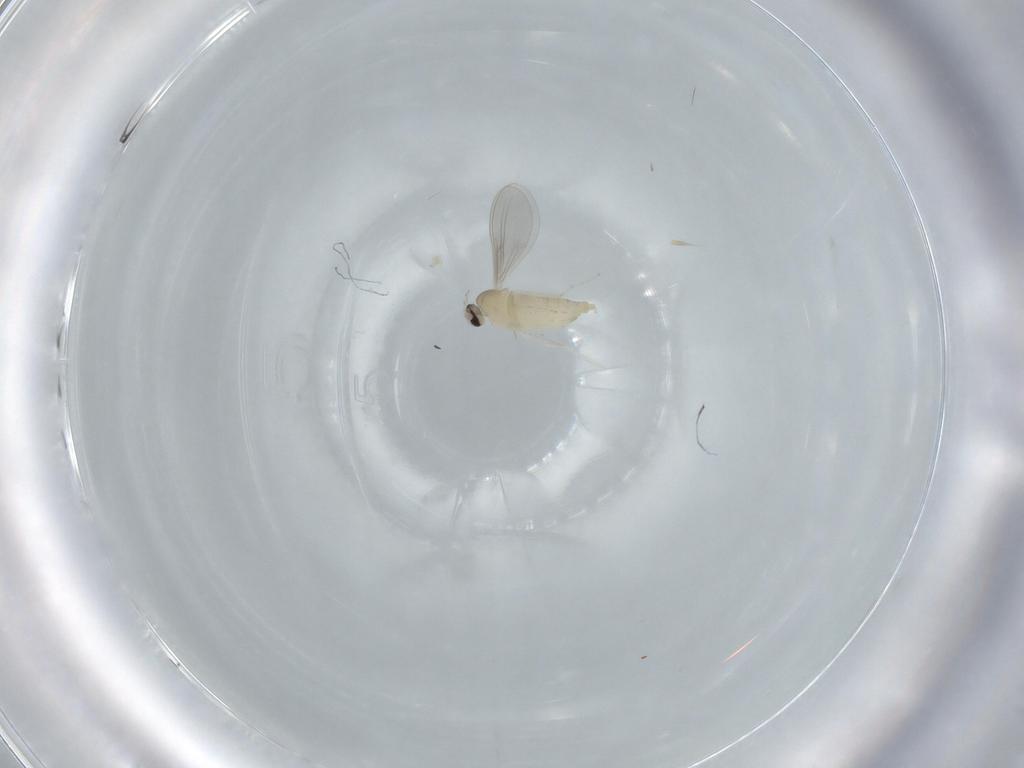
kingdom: Animalia
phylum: Arthropoda
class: Insecta
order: Diptera
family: Cecidomyiidae
